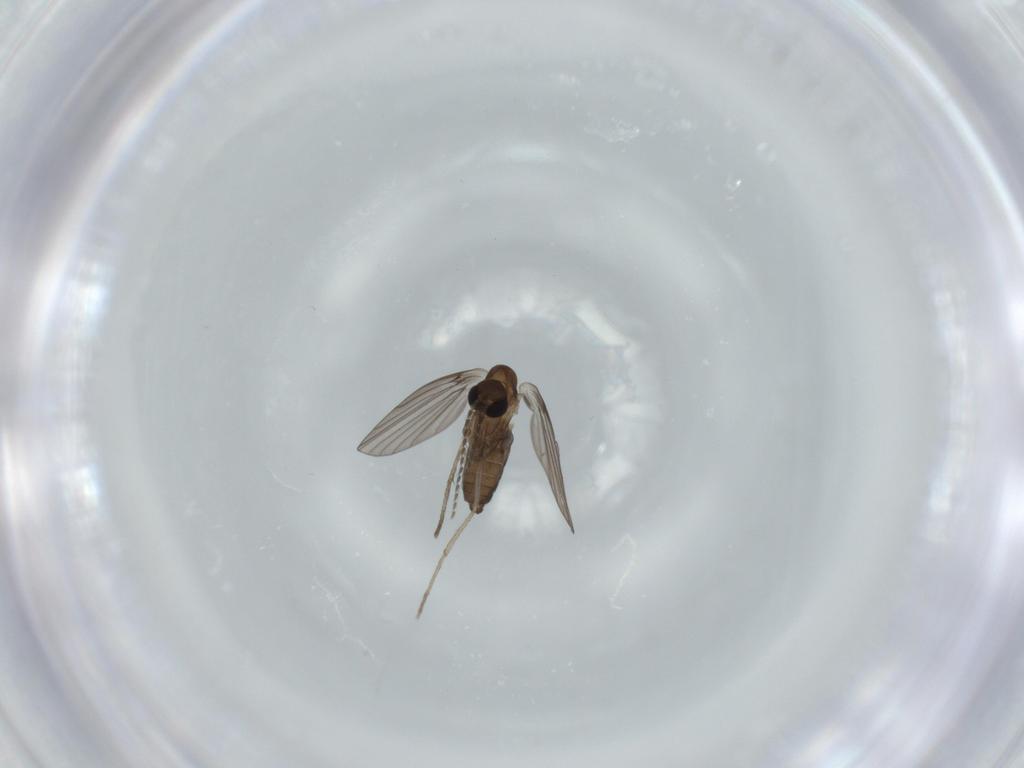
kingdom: Animalia
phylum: Arthropoda
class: Insecta
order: Diptera
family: Psychodidae
